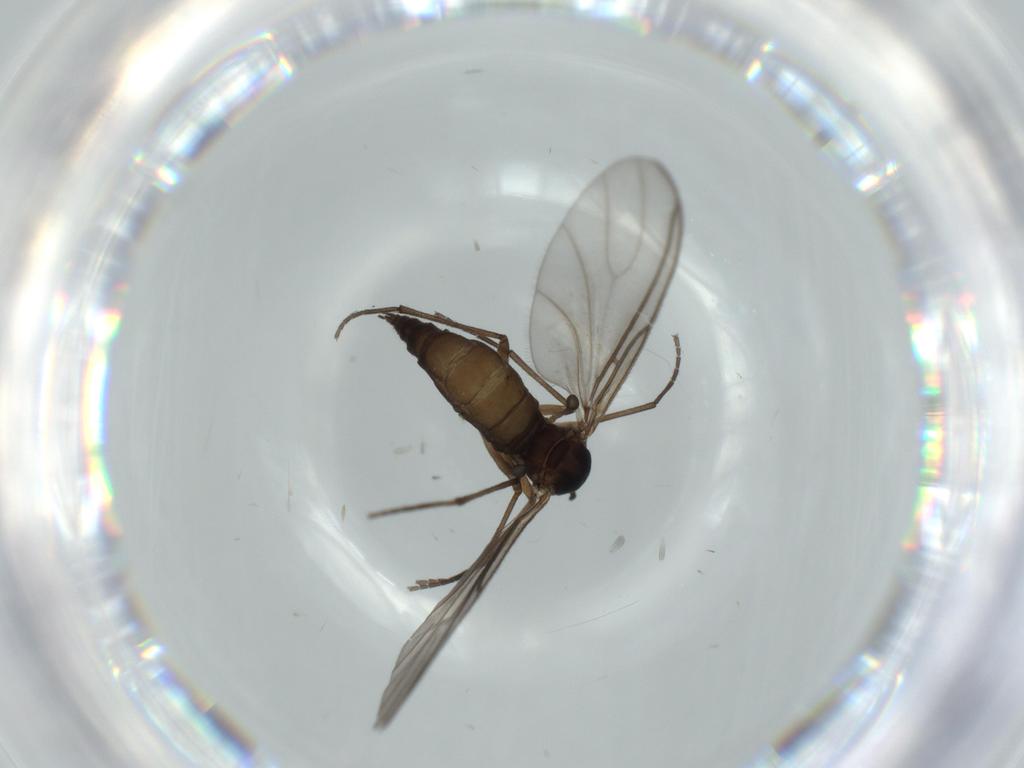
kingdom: Animalia
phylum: Arthropoda
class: Insecta
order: Diptera
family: Sciaridae
